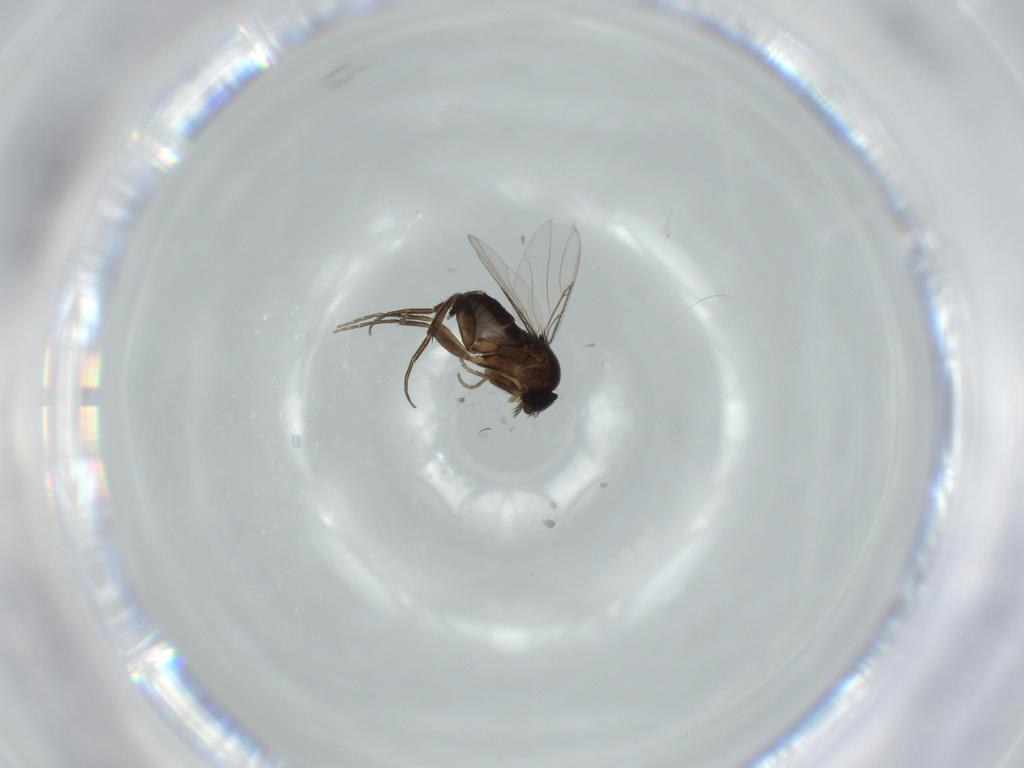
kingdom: Animalia
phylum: Arthropoda
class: Insecta
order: Diptera
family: Phoridae
